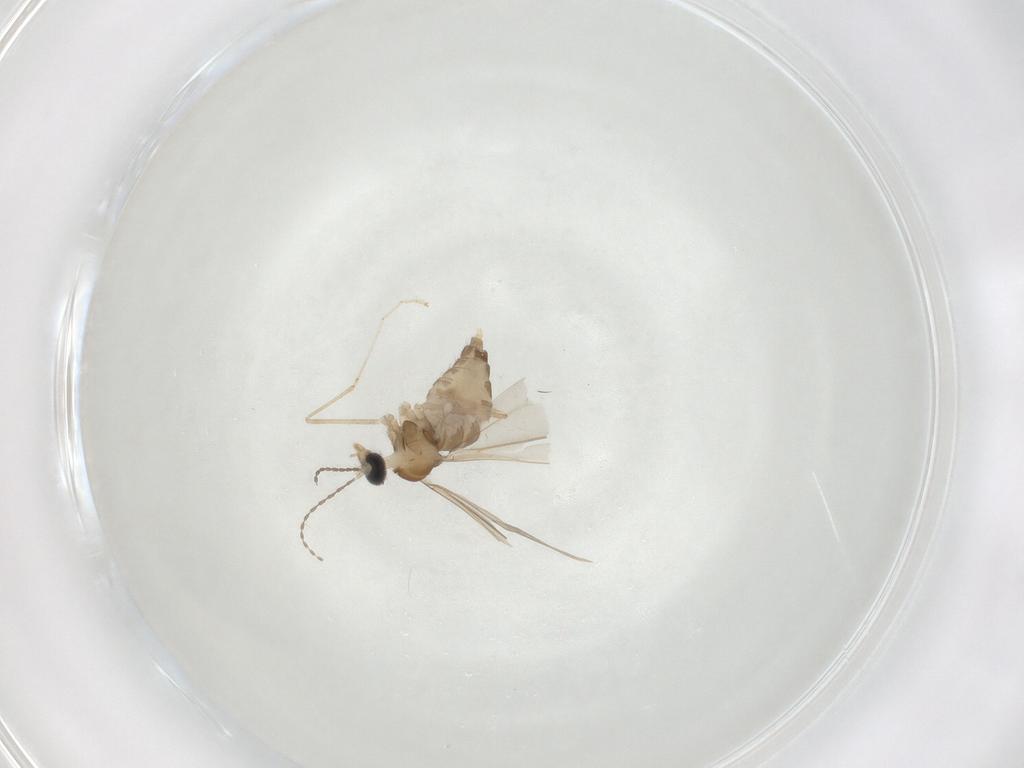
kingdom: Animalia
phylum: Arthropoda
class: Insecta
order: Diptera
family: Cecidomyiidae
